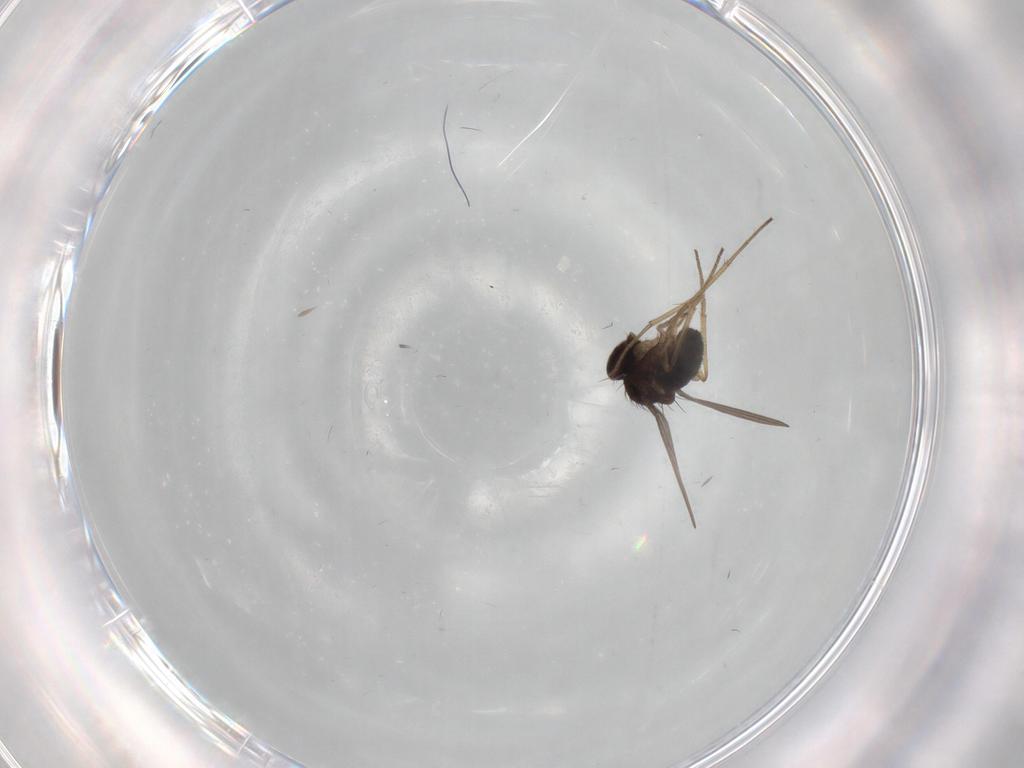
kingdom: Animalia
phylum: Arthropoda
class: Insecta
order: Diptera
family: Dolichopodidae
